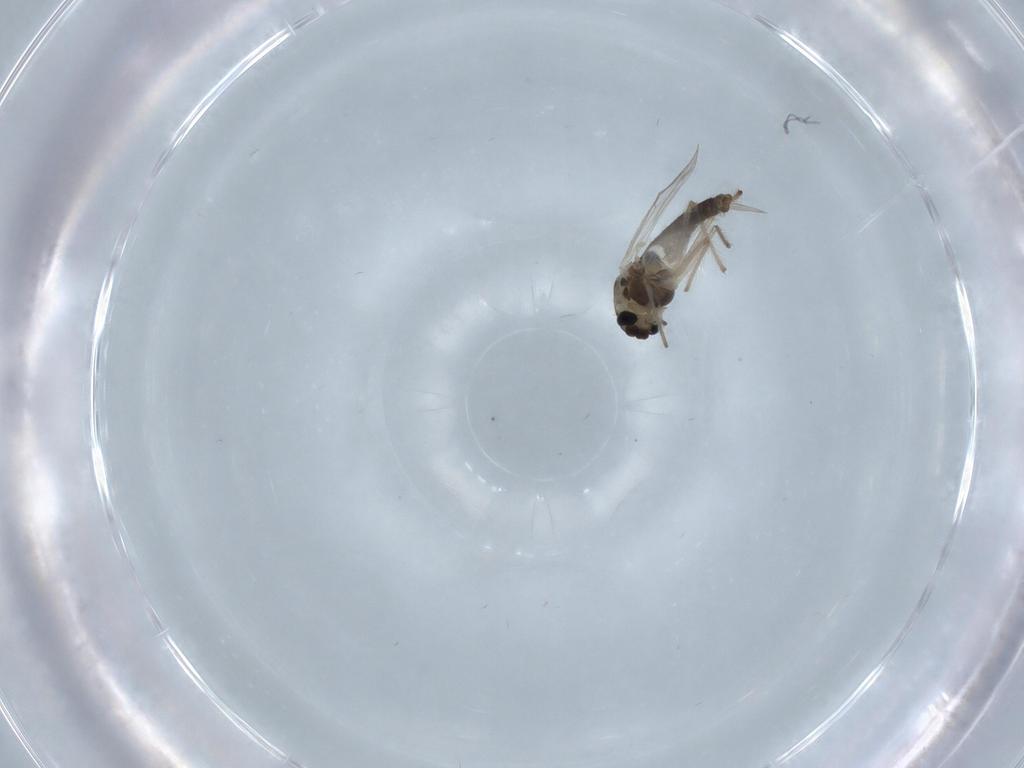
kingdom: Animalia
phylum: Arthropoda
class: Insecta
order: Diptera
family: Chironomidae
